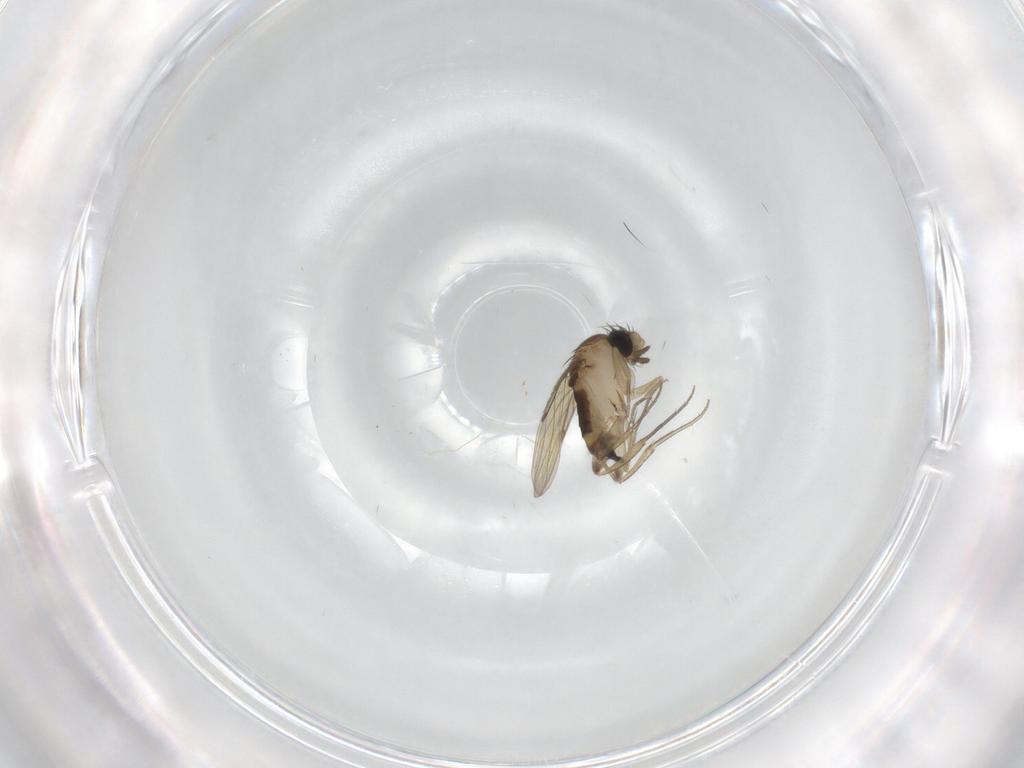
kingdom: Animalia
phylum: Arthropoda
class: Insecta
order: Diptera
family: Phoridae
